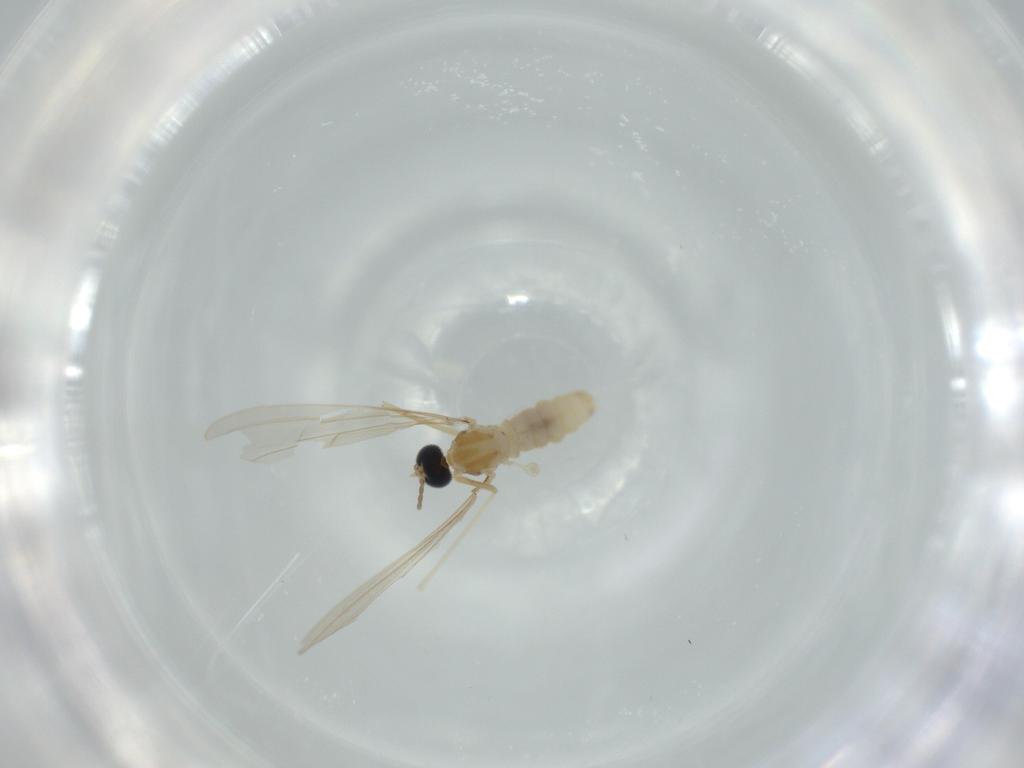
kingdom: Animalia
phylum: Arthropoda
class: Insecta
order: Diptera
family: Cecidomyiidae
